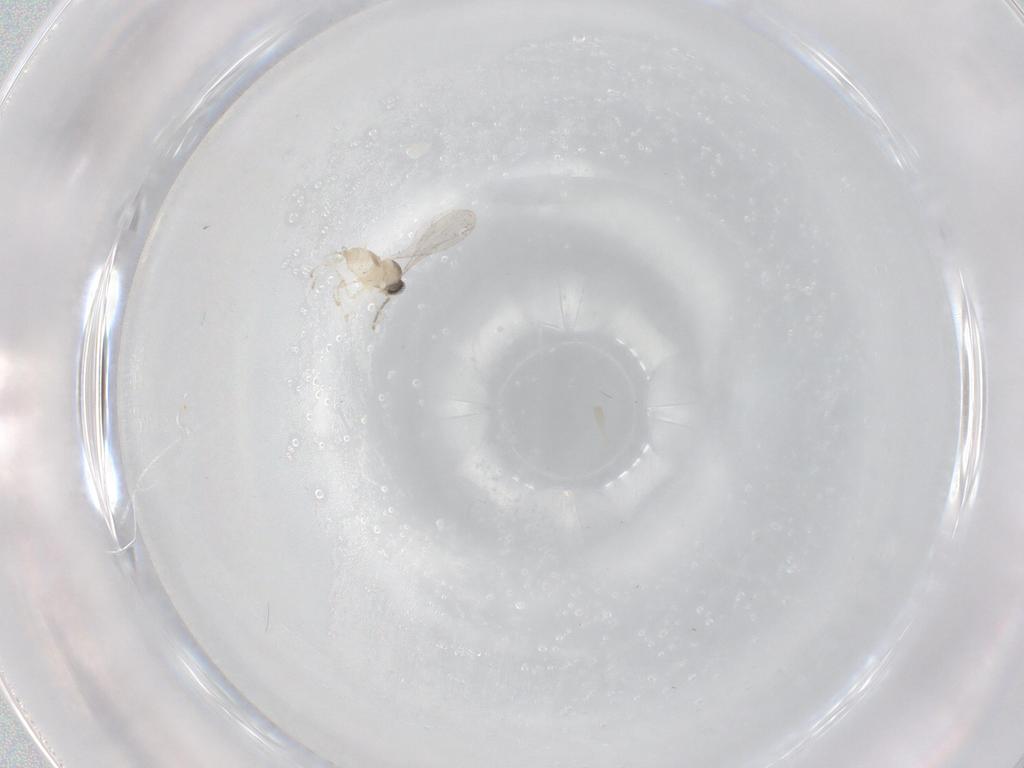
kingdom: Animalia
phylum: Arthropoda
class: Insecta
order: Diptera
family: Cecidomyiidae
